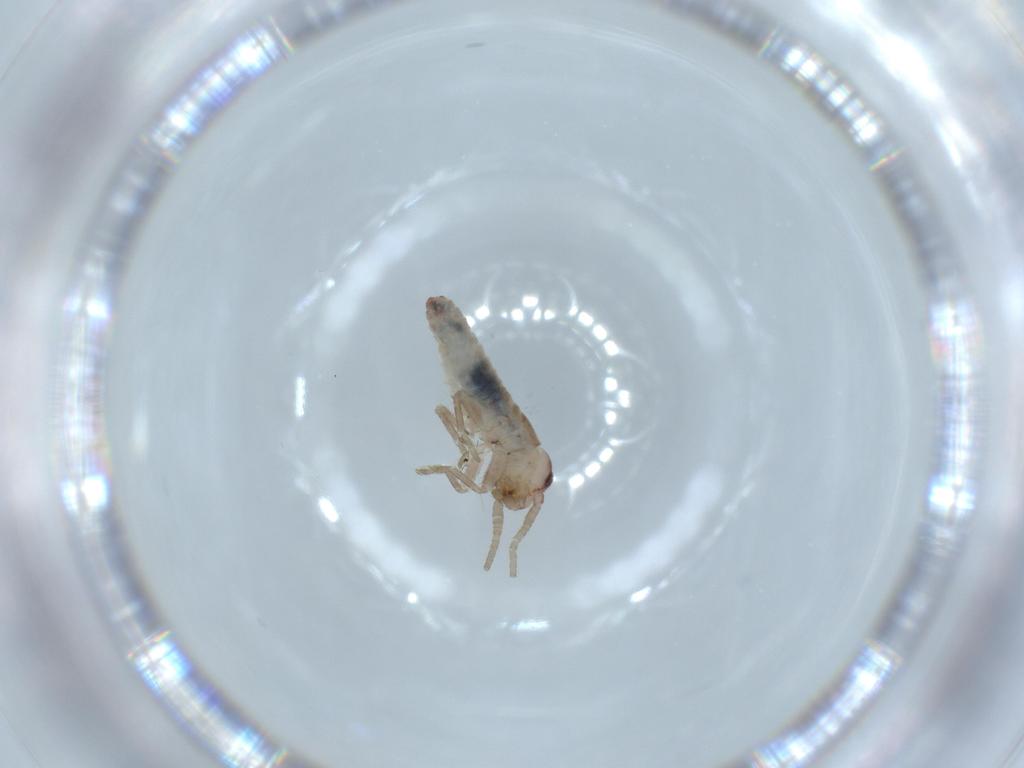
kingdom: Animalia
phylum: Arthropoda
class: Insecta
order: Orthoptera
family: Mogoplistidae
